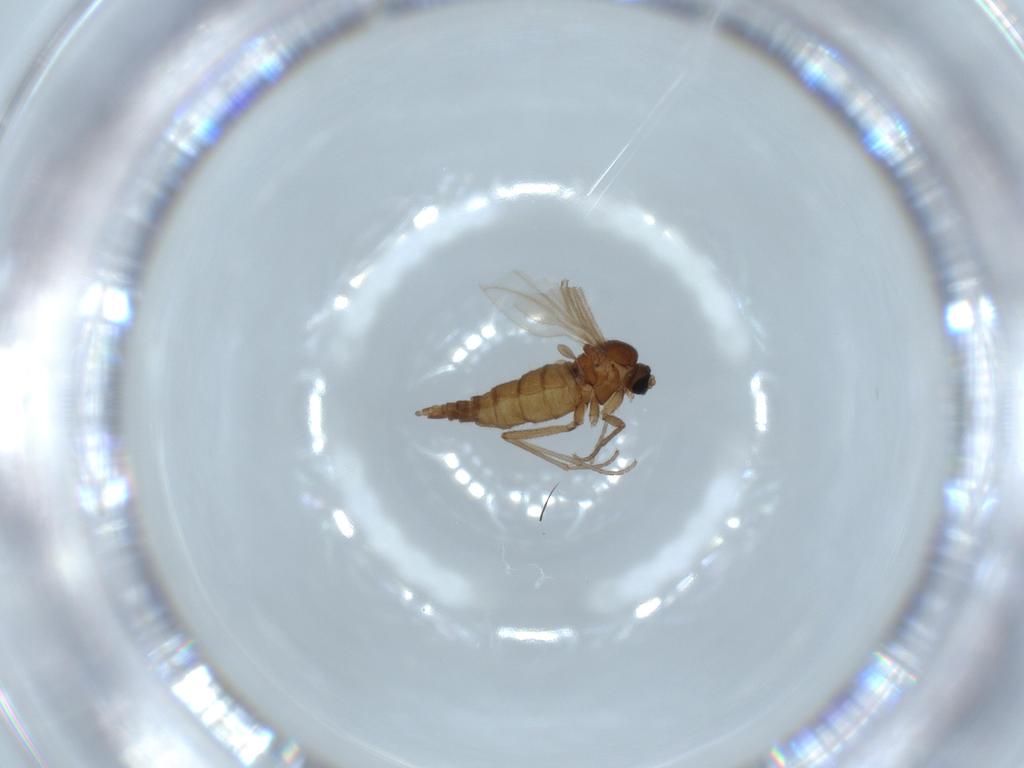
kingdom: Animalia
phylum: Arthropoda
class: Insecta
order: Diptera
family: Sciaridae
